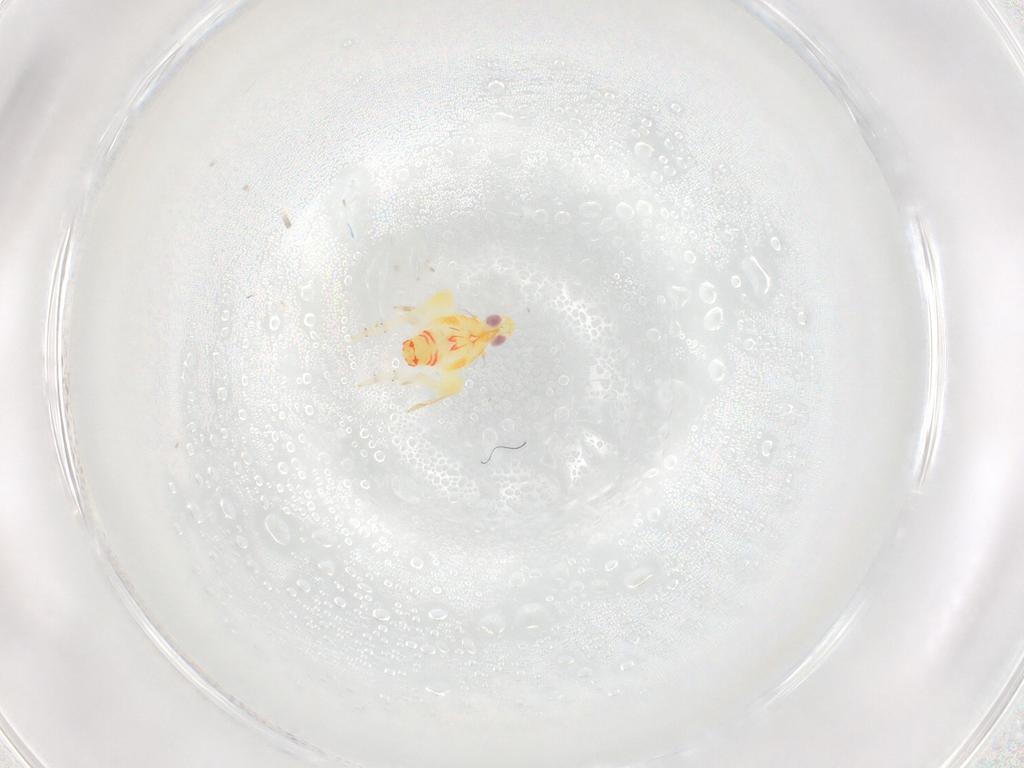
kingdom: Animalia
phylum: Arthropoda
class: Insecta
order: Hemiptera
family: Tropiduchidae
